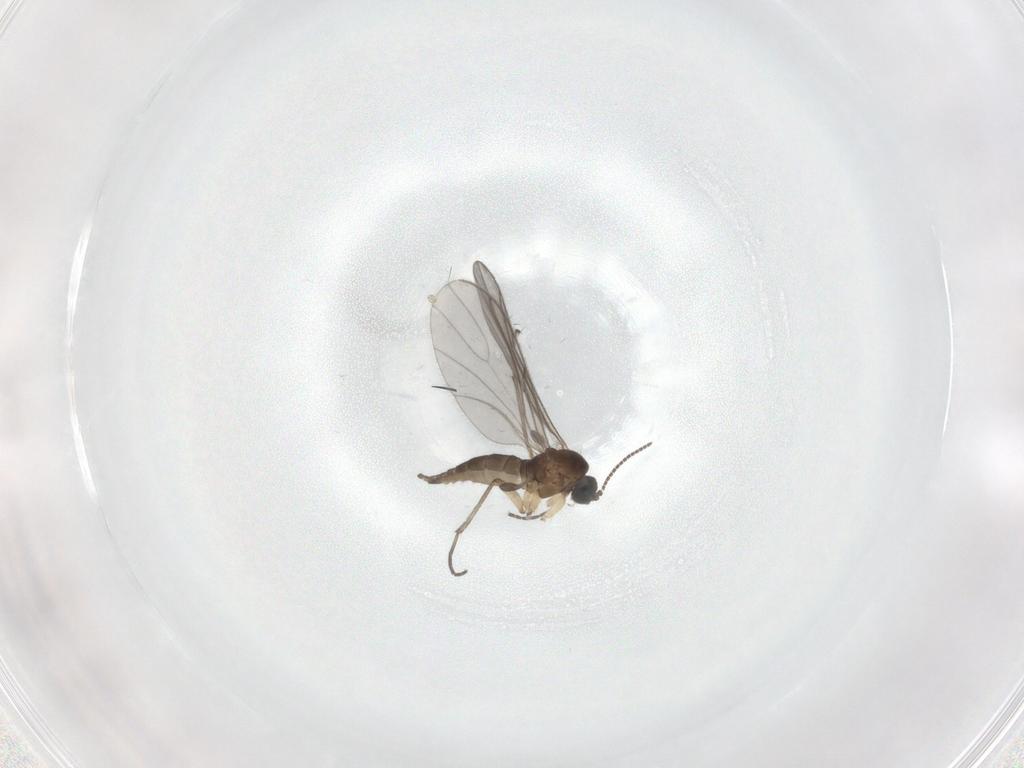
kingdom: Animalia
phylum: Arthropoda
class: Insecta
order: Diptera
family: Sciaridae
